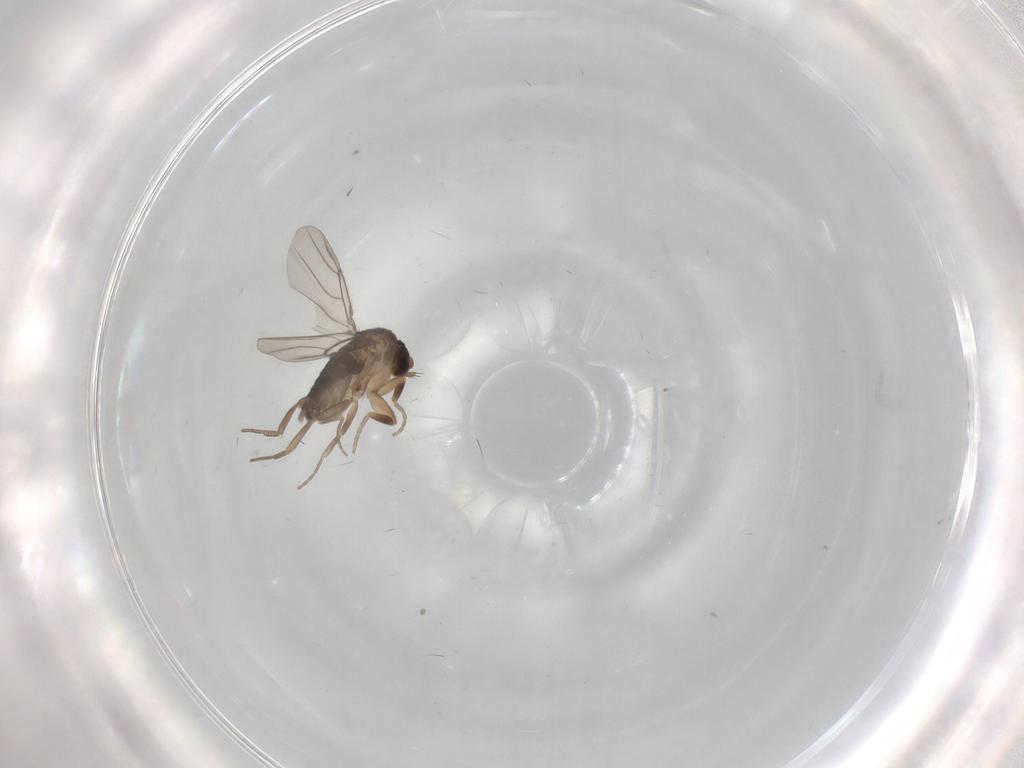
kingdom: Animalia
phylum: Arthropoda
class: Insecta
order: Diptera
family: Phoridae
